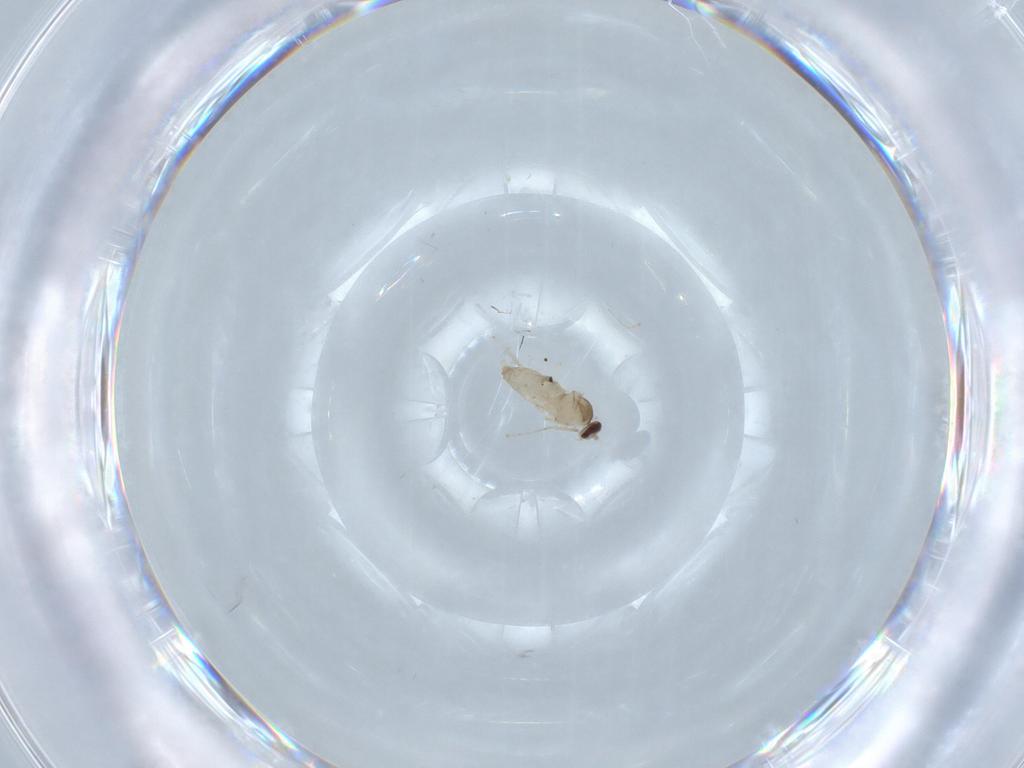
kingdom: Animalia
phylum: Arthropoda
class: Insecta
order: Diptera
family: Cecidomyiidae
